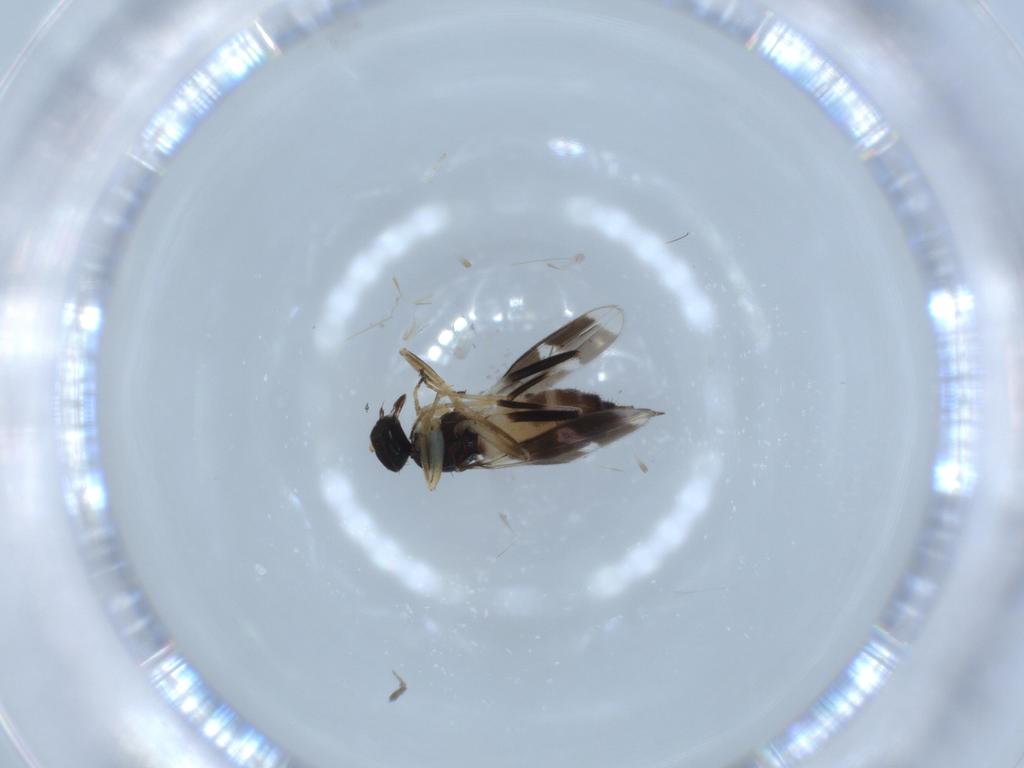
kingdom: Animalia
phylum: Arthropoda
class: Insecta
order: Diptera
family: Hybotidae
